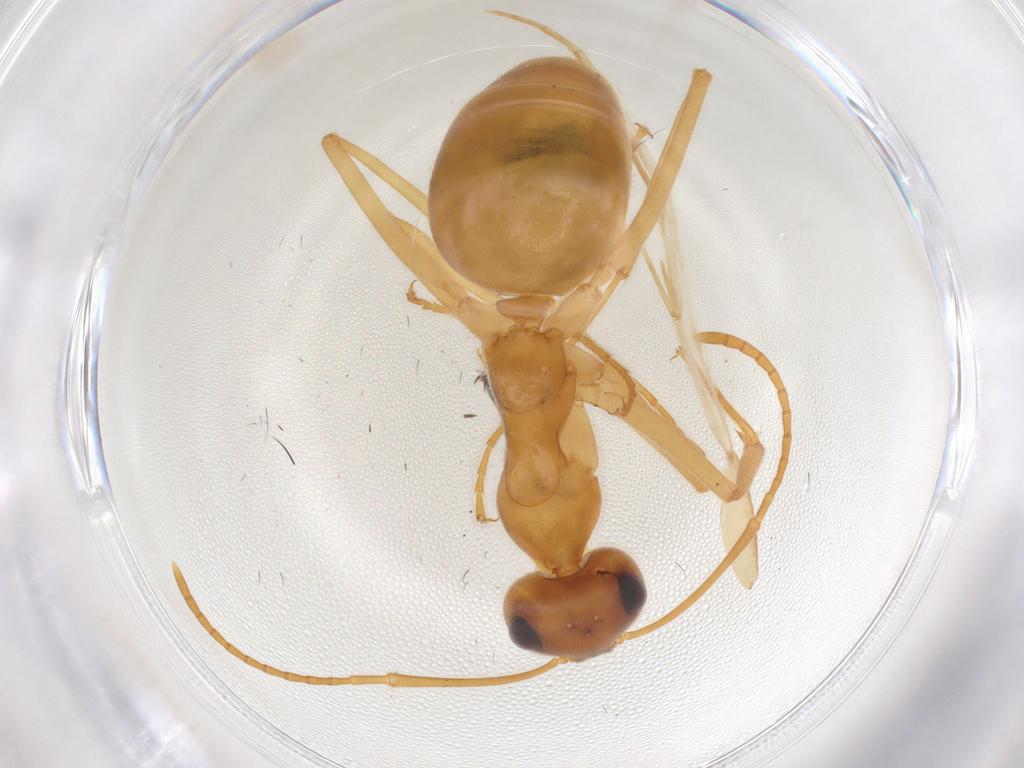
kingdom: Animalia
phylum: Arthropoda
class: Insecta
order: Hymenoptera
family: Formicidae
